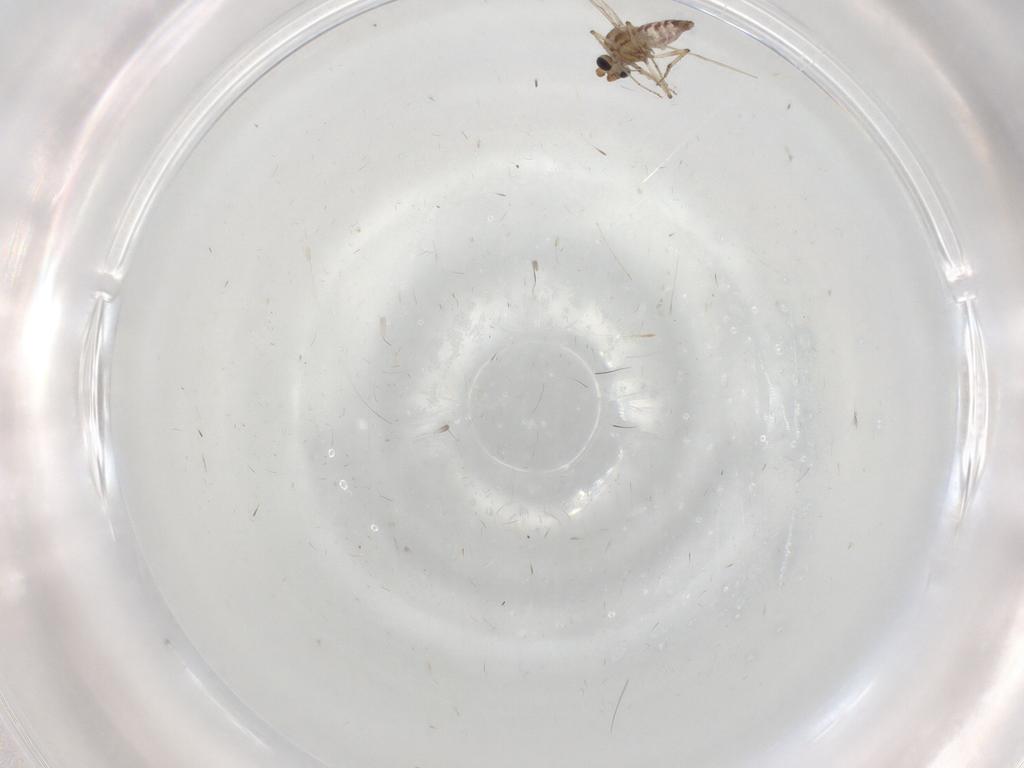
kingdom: Animalia
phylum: Arthropoda
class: Insecta
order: Diptera
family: Ceratopogonidae
